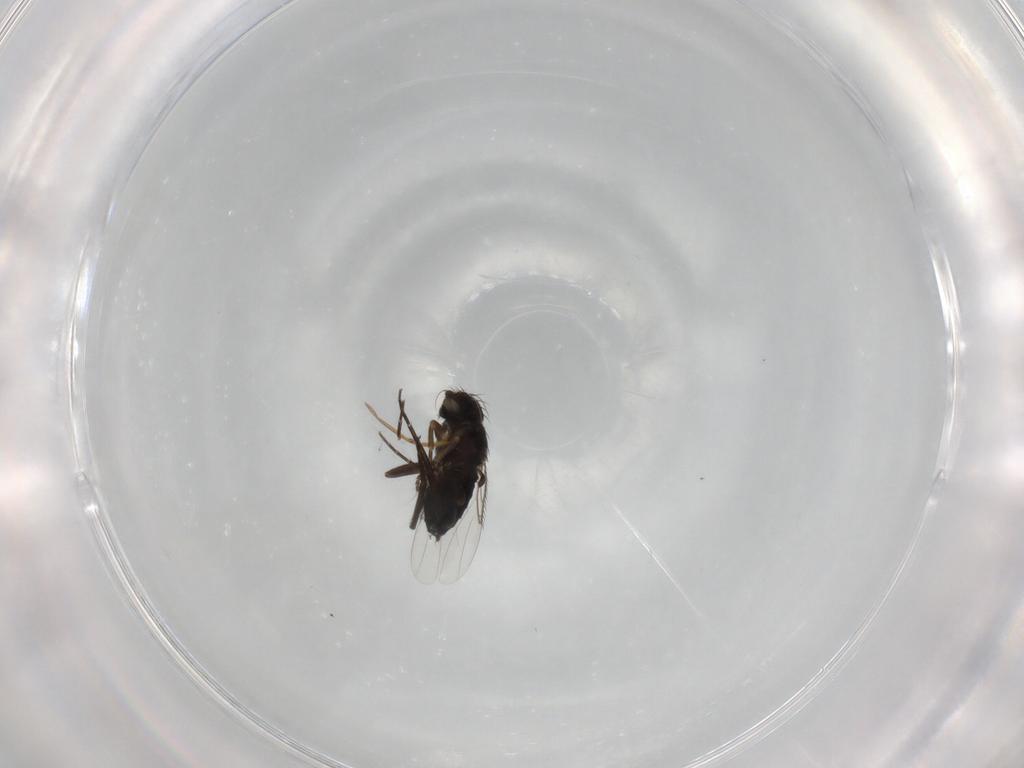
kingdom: Animalia
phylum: Arthropoda
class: Insecta
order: Diptera
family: Phoridae
